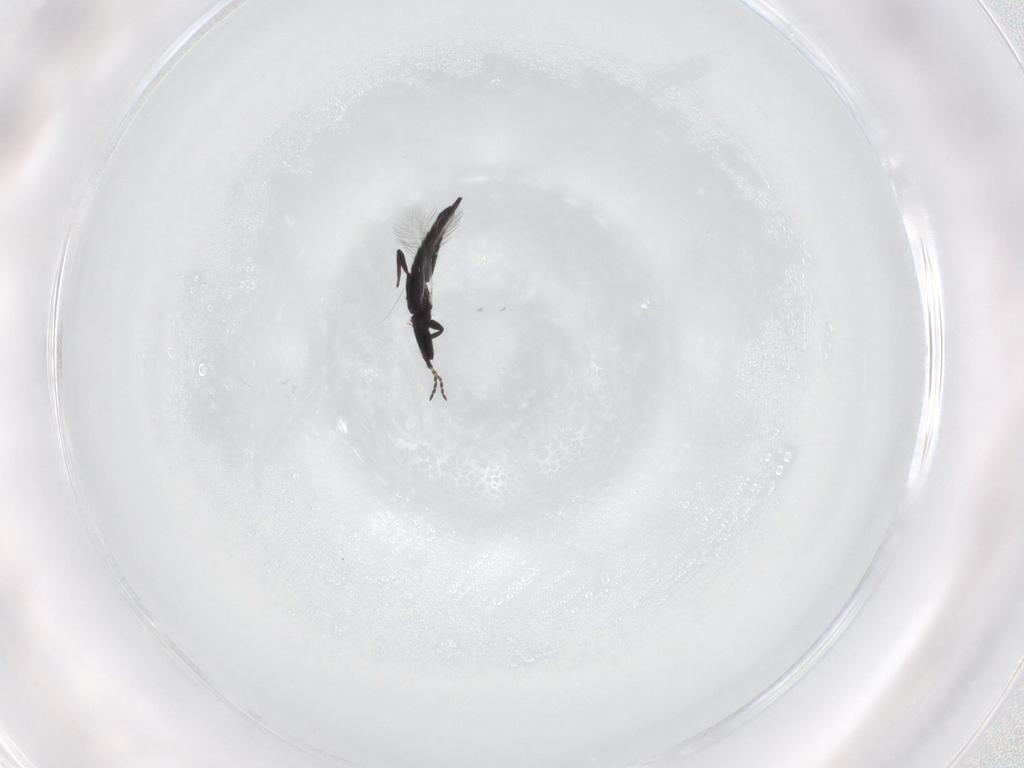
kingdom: Animalia
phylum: Arthropoda
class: Insecta
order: Thysanoptera
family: Phlaeothripidae
